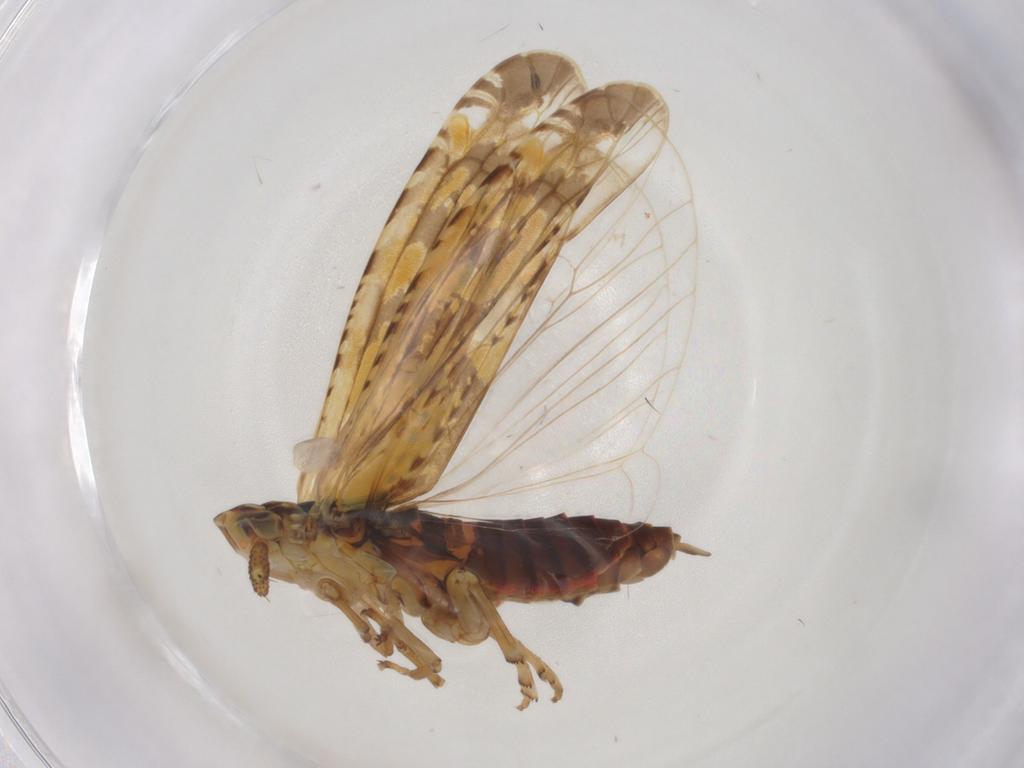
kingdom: Animalia
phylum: Arthropoda
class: Insecta
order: Hemiptera
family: Achilidae
